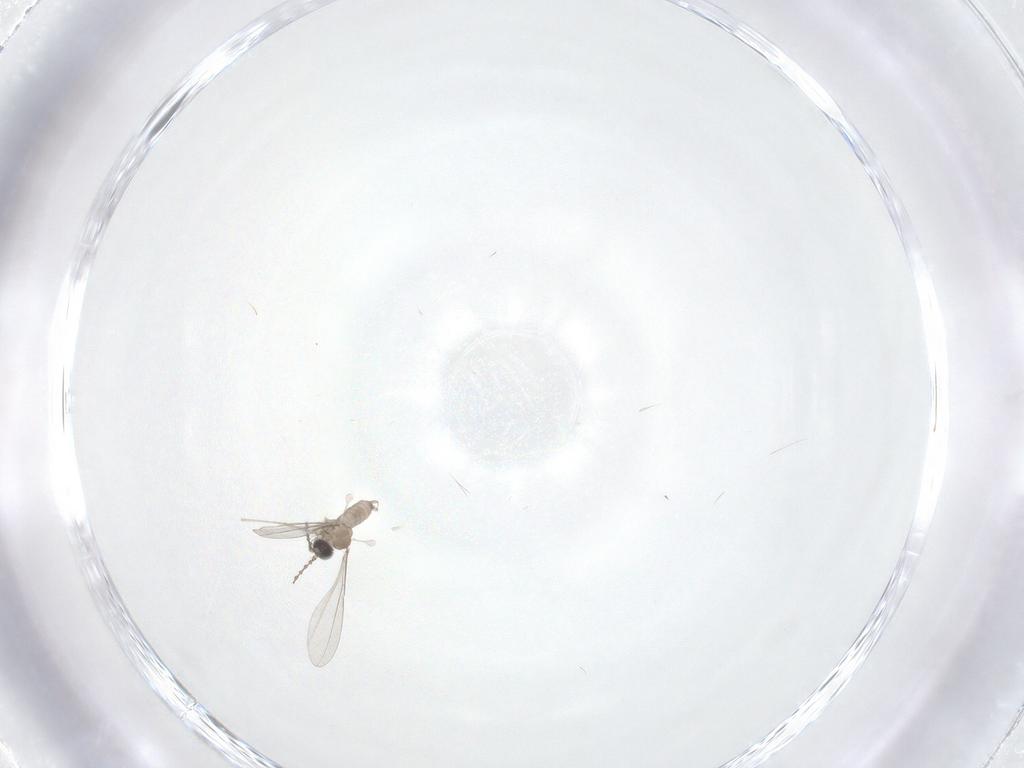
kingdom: Animalia
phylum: Arthropoda
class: Insecta
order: Diptera
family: Cecidomyiidae
